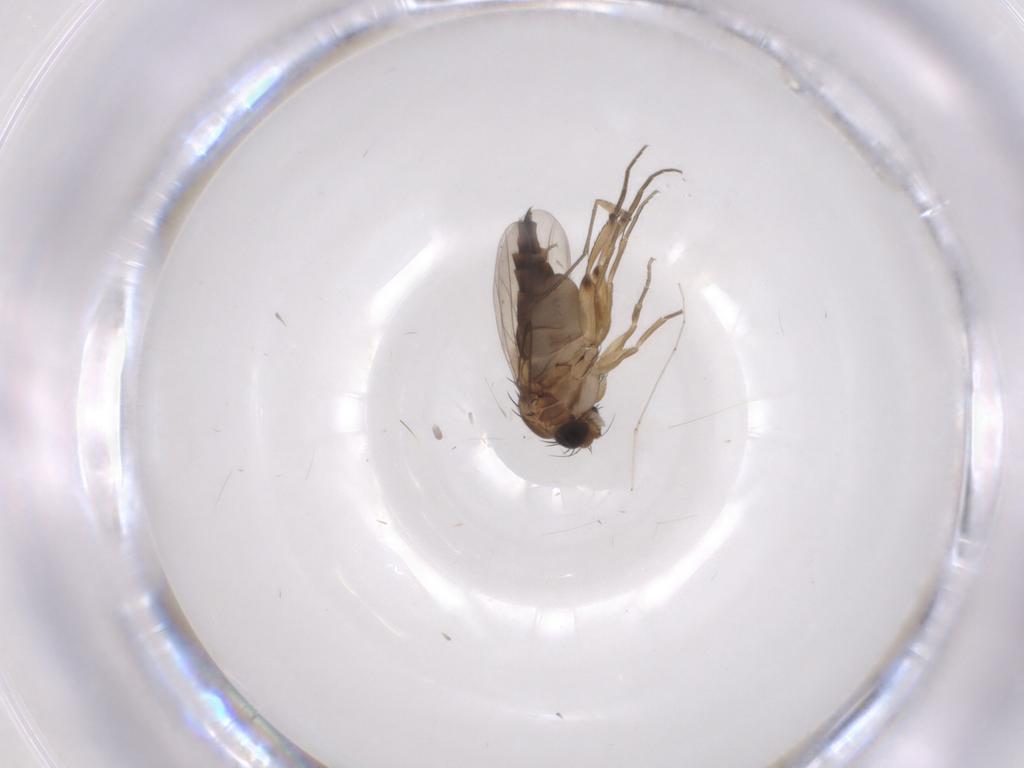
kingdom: Animalia
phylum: Arthropoda
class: Insecta
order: Diptera
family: Phoridae
